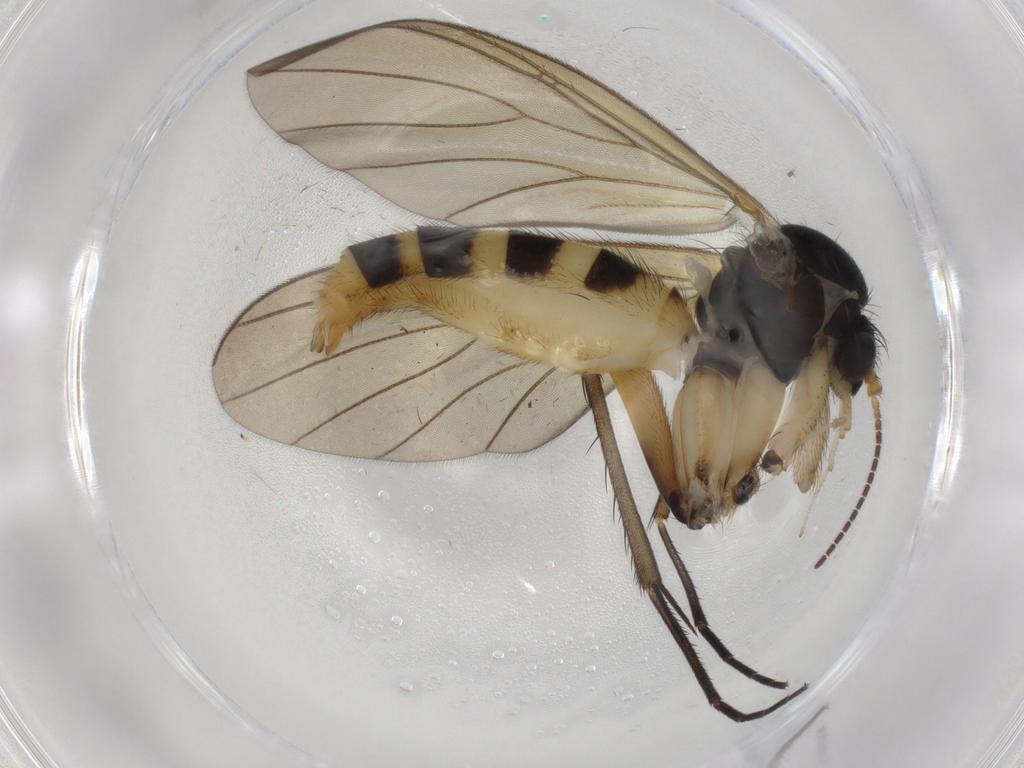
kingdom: Animalia
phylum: Arthropoda
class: Insecta
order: Diptera
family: Mycetophilidae
